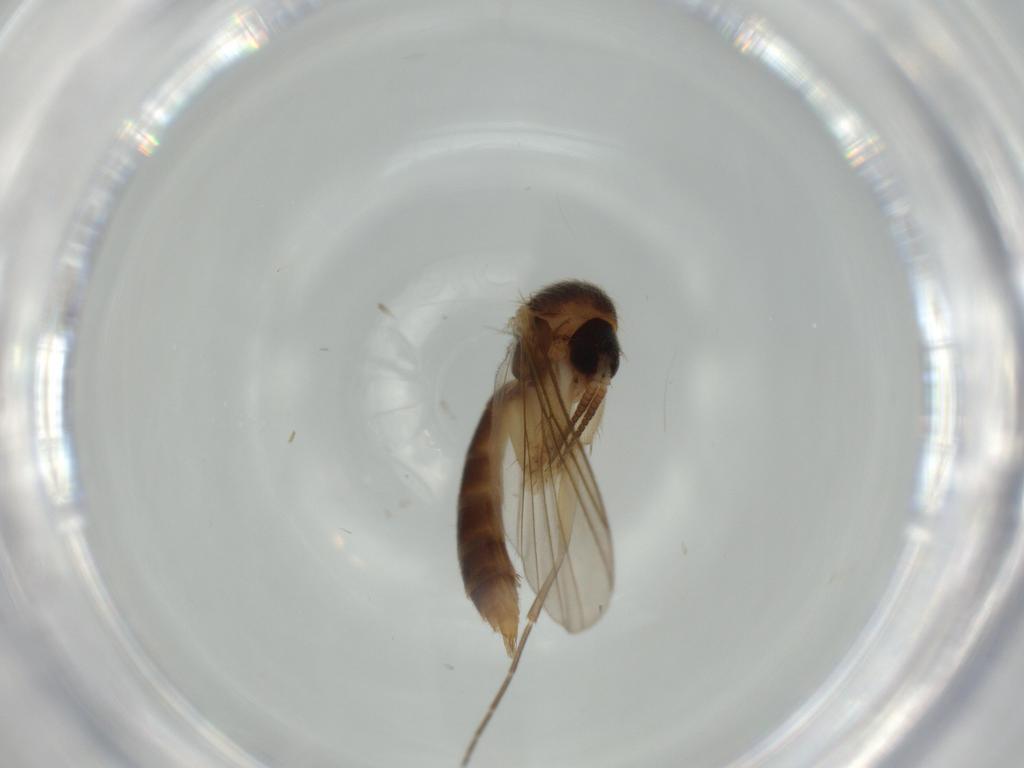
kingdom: Animalia
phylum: Arthropoda
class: Insecta
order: Diptera
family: Mycetophilidae
